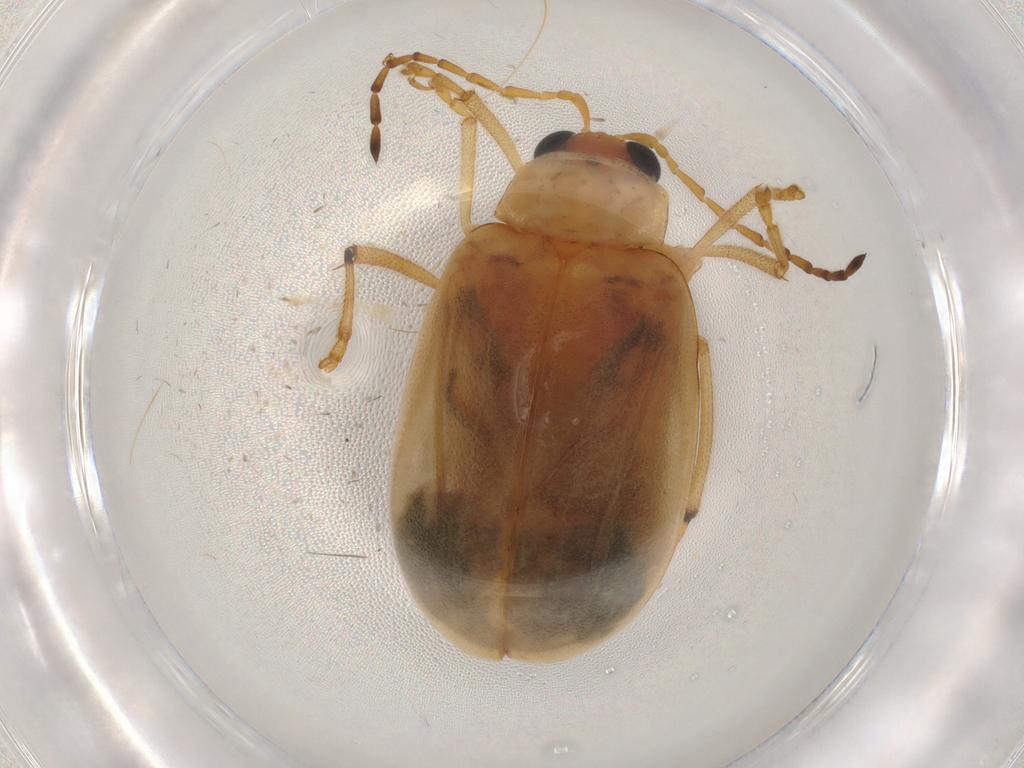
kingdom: Animalia
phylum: Arthropoda
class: Insecta
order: Coleoptera
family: Chrysomelidae
